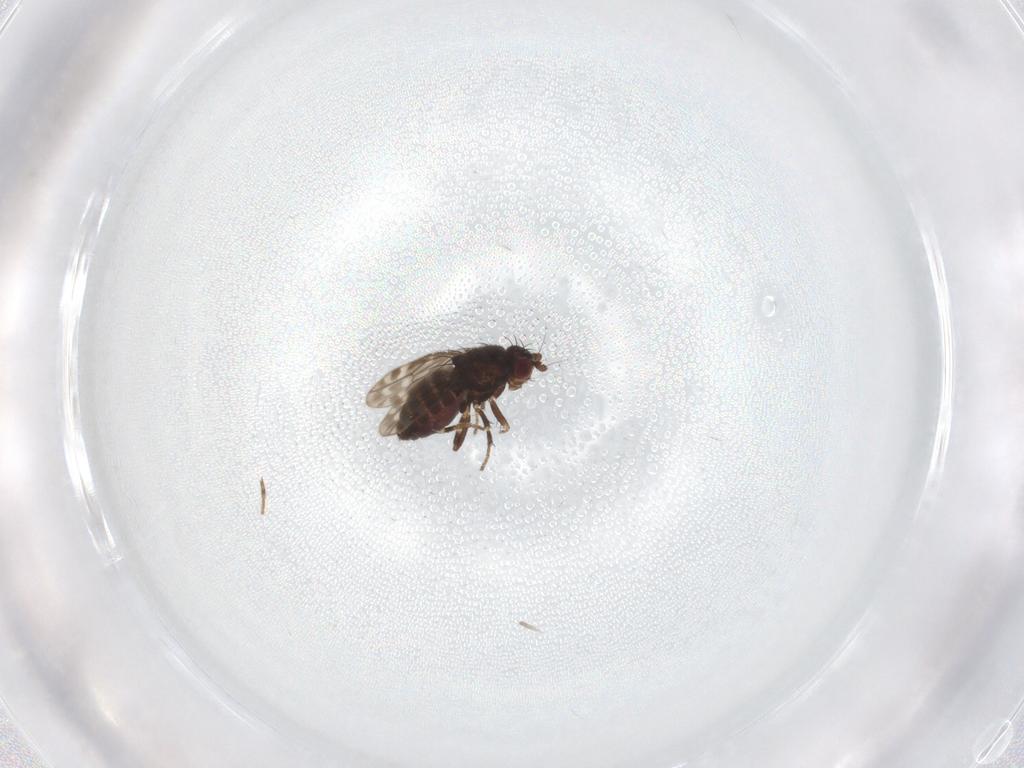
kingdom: Animalia
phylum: Arthropoda
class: Insecta
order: Diptera
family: Sphaeroceridae
